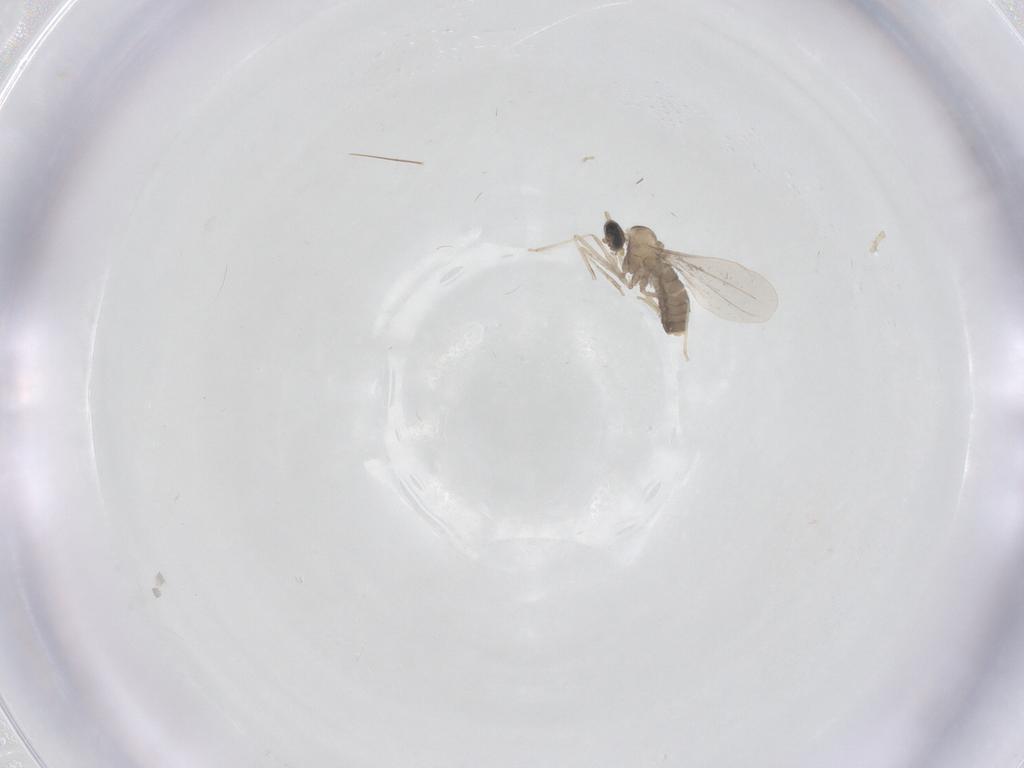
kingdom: Animalia
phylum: Arthropoda
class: Insecta
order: Diptera
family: Cecidomyiidae
